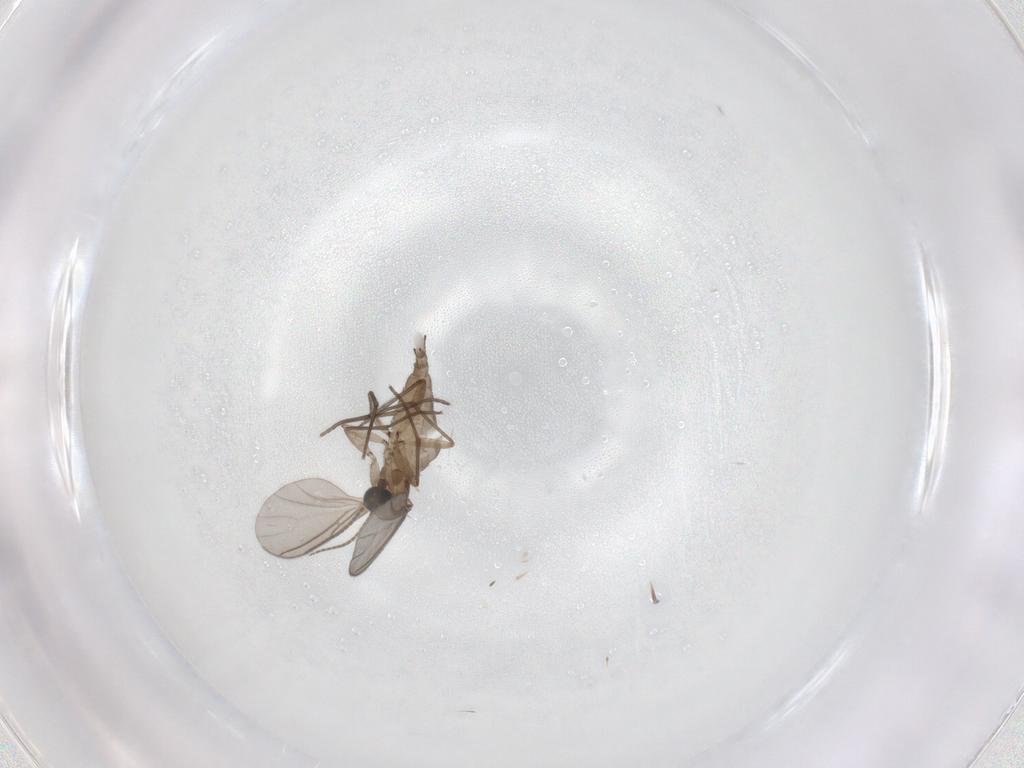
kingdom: Animalia
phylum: Arthropoda
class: Insecta
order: Diptera
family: Sciaridae
